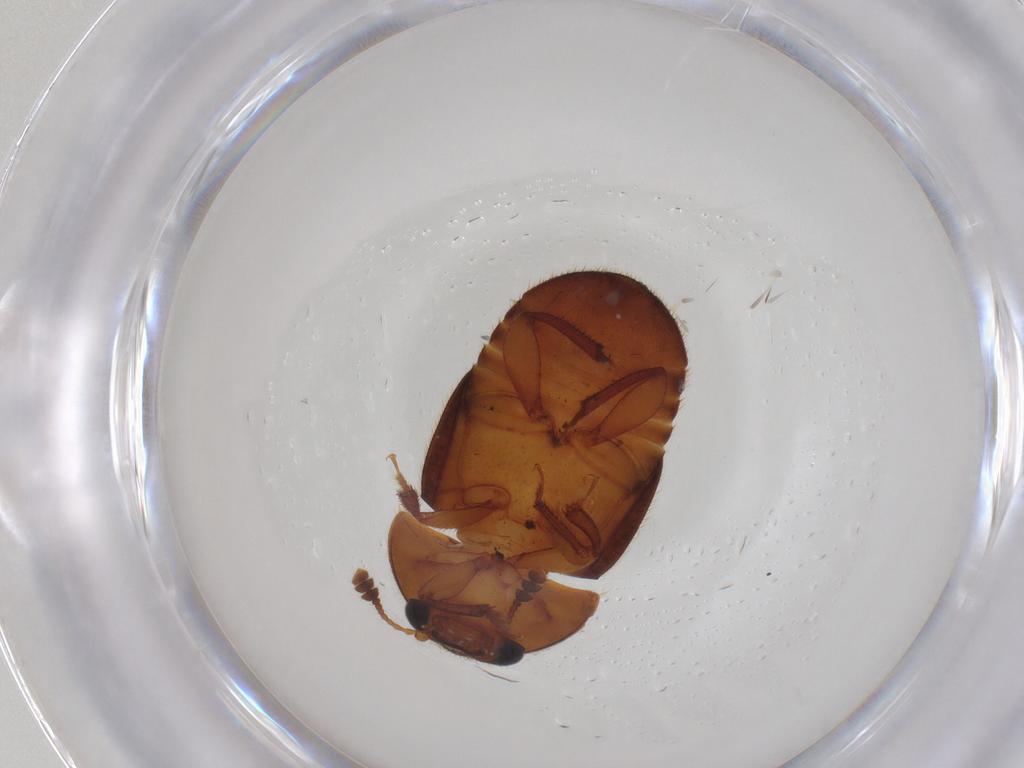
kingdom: Animalia
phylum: Arthropoda
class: Insecta
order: Coleoptera
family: Nitidulidae
